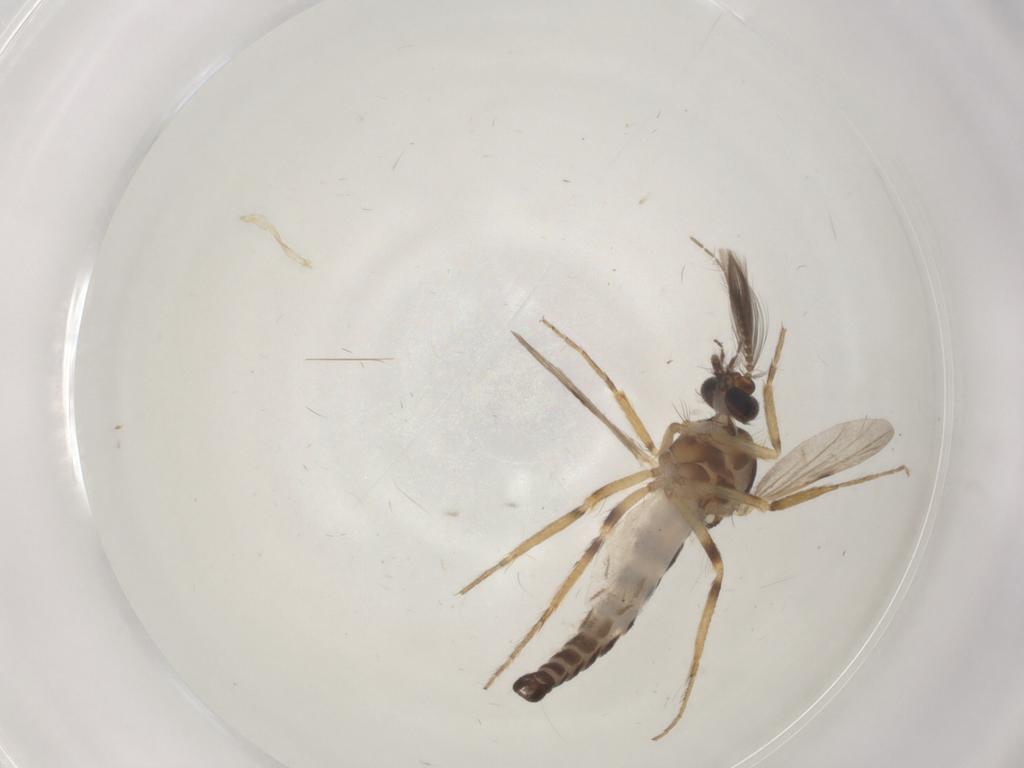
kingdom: Animalia
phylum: Arthropoda
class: Insecta
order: Diptera
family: Ceratopogonidae
